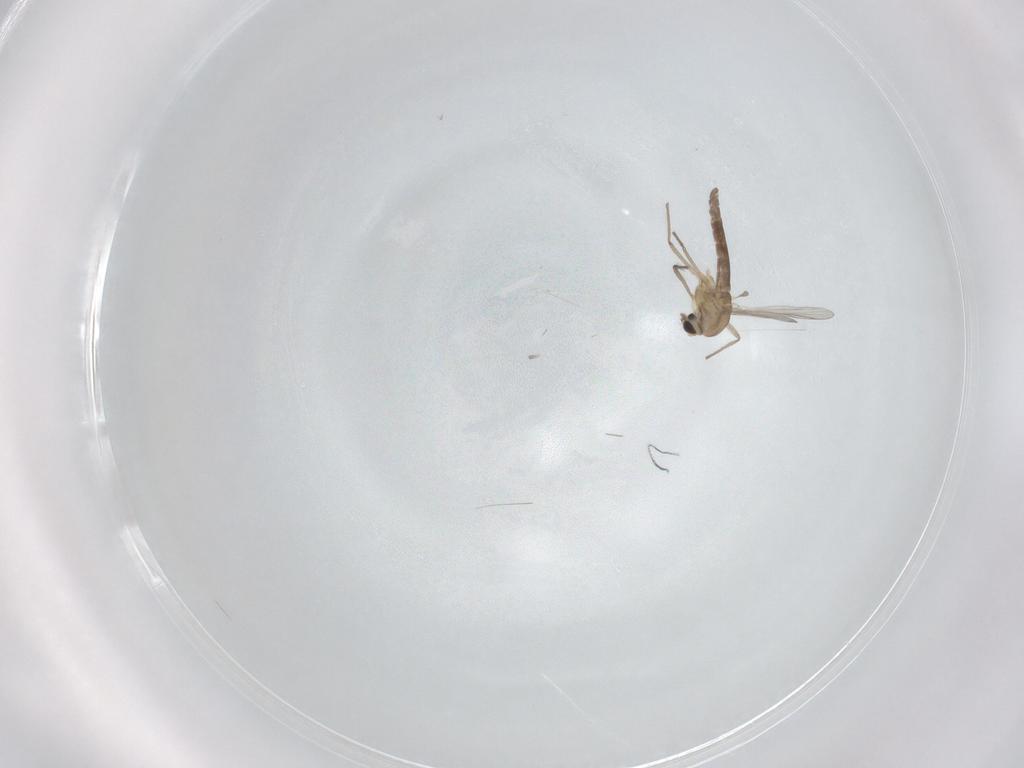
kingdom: Animalia
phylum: Arthropoda
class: Insecta
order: Diptera
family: Chironomidae
